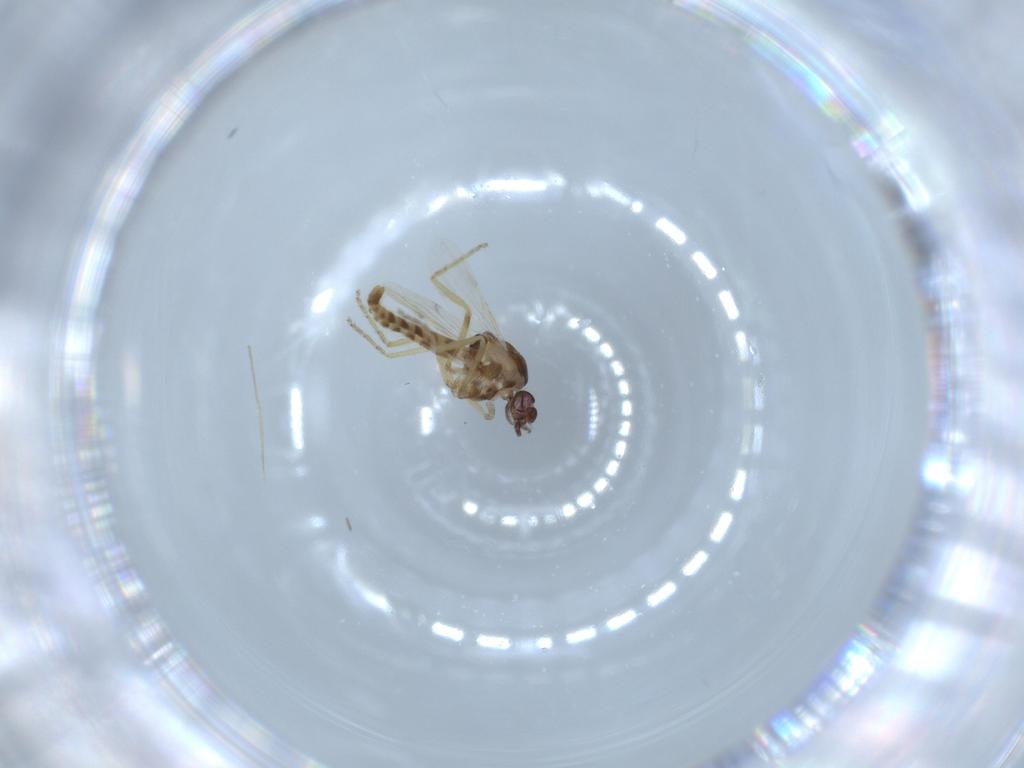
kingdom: Animalia
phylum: Arthropoda
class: Insecta
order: Diptera
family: Ceratopogonidae
